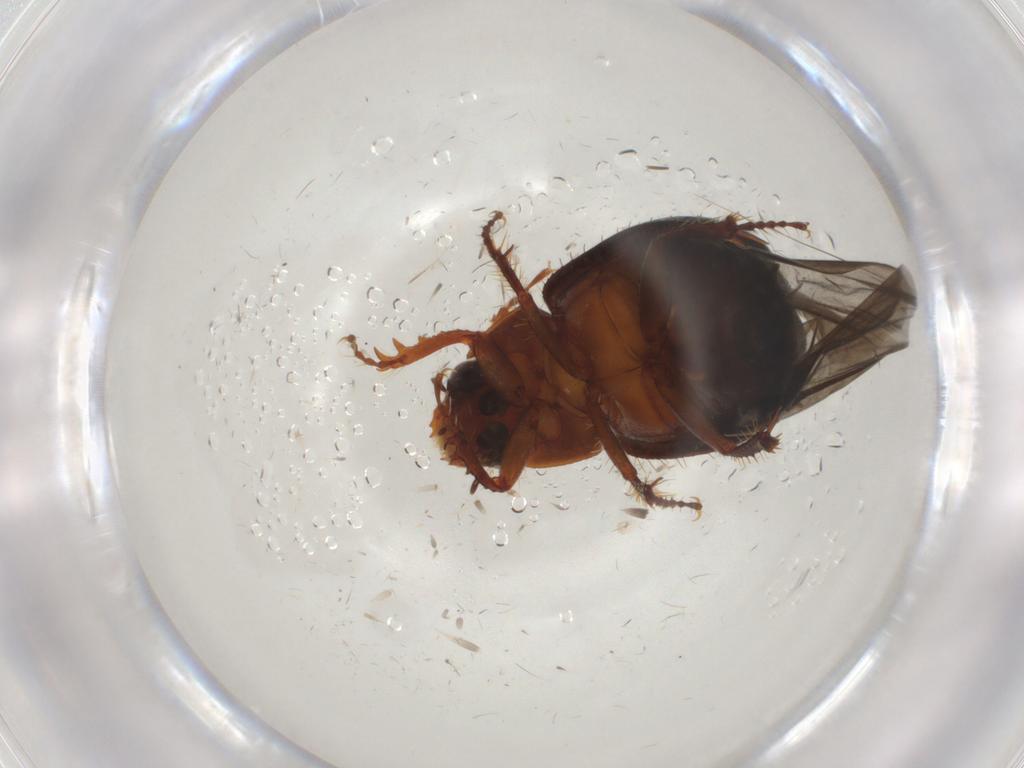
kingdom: Animalia
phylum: Arthropoda
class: Insecta
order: Coleoptera
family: Hybosoridae
